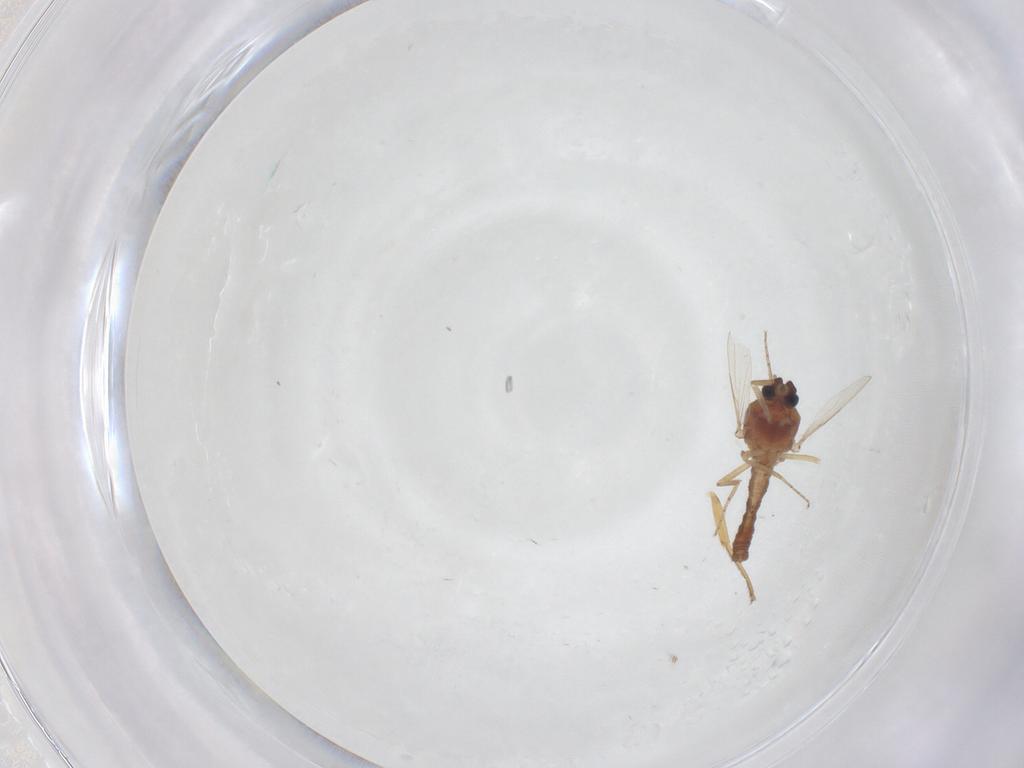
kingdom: Animalia
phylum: Arthropoda
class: Insecta
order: Diptera
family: Ceratopogonidae
